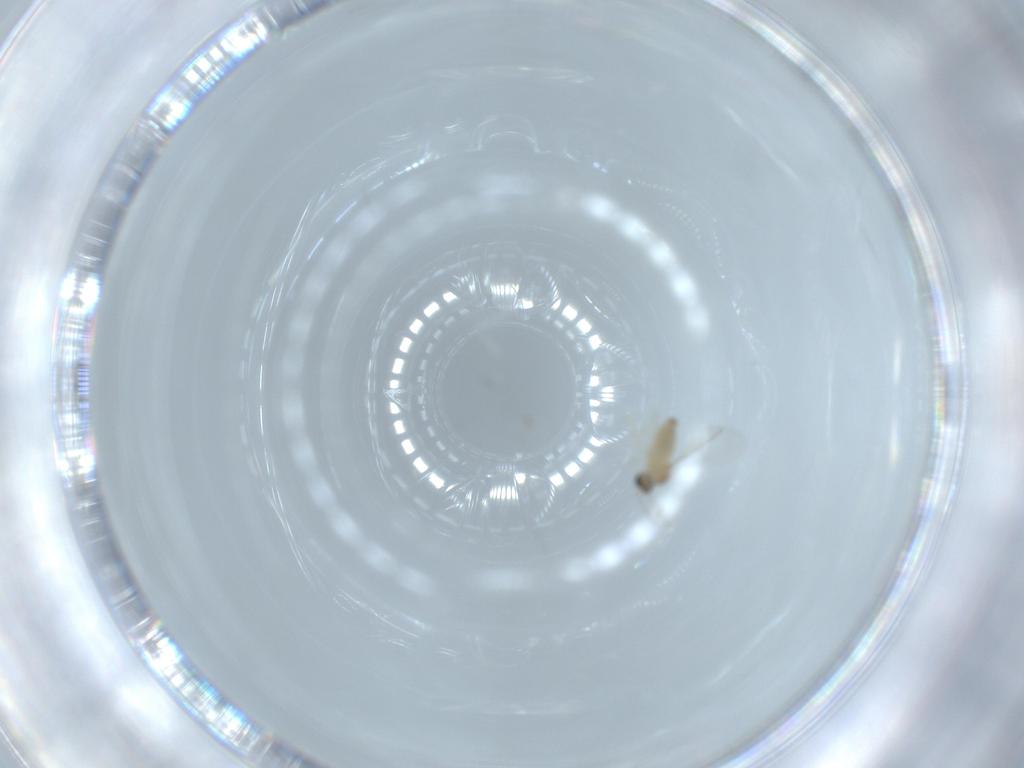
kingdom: Animalia
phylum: Arthropoda
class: Insecta
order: Diptera
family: Cecidomyiidae
